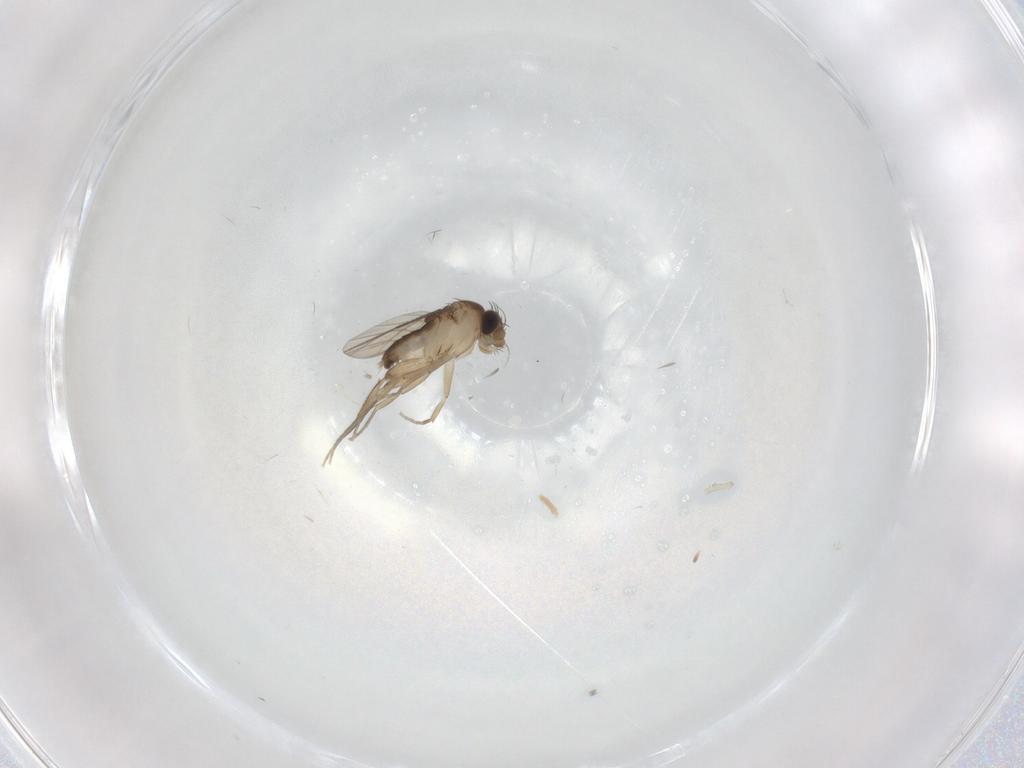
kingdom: Animalia
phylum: Arthropoda
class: Insecta
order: Diptera
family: Phoridae
